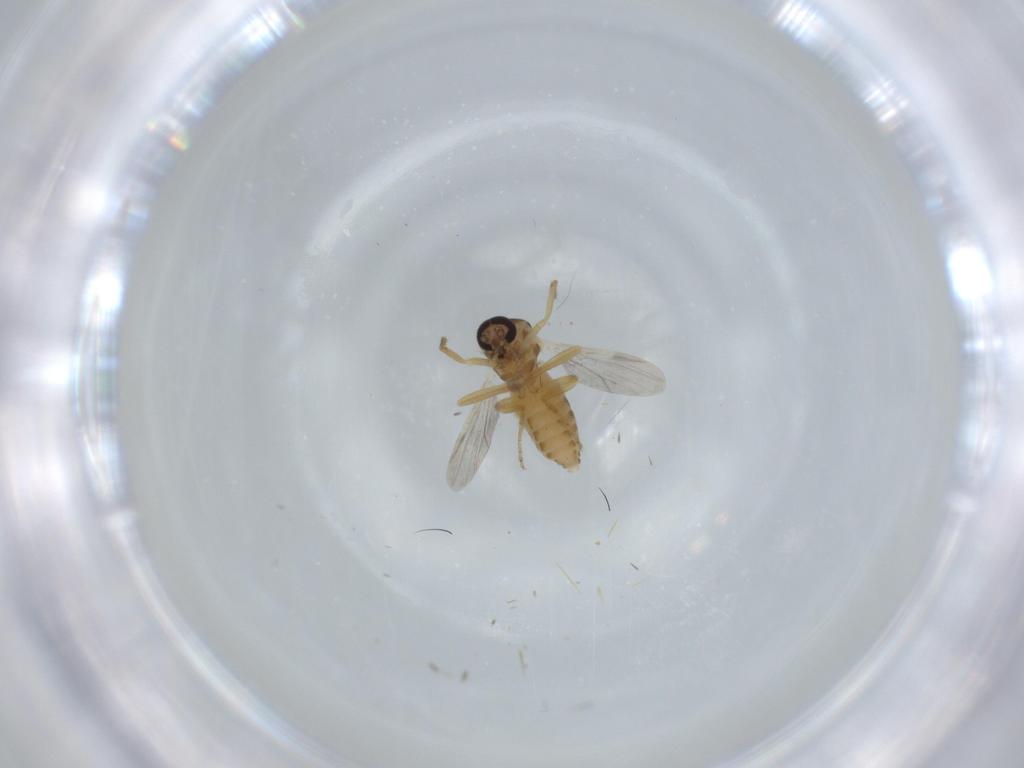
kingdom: Animalia
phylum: Arthropoda
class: Insecta
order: Diptera
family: Ceratopogonidae
